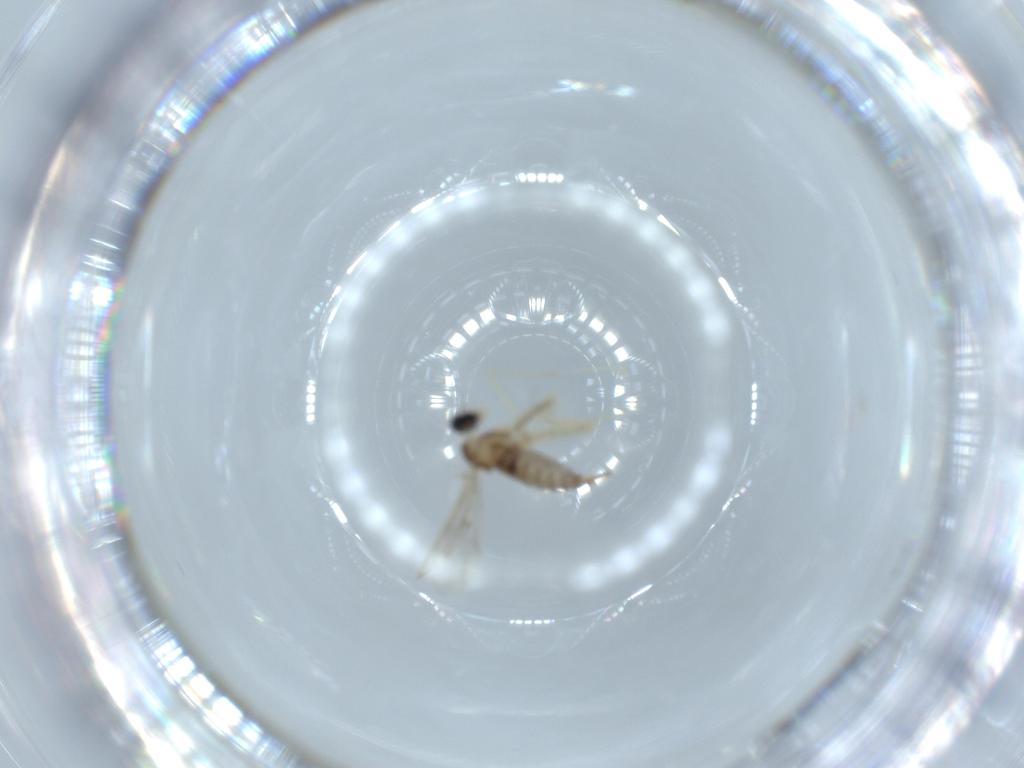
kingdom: Animalia
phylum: Arthropoda
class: Insecta
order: Diptera
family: Cecidomyiidae
